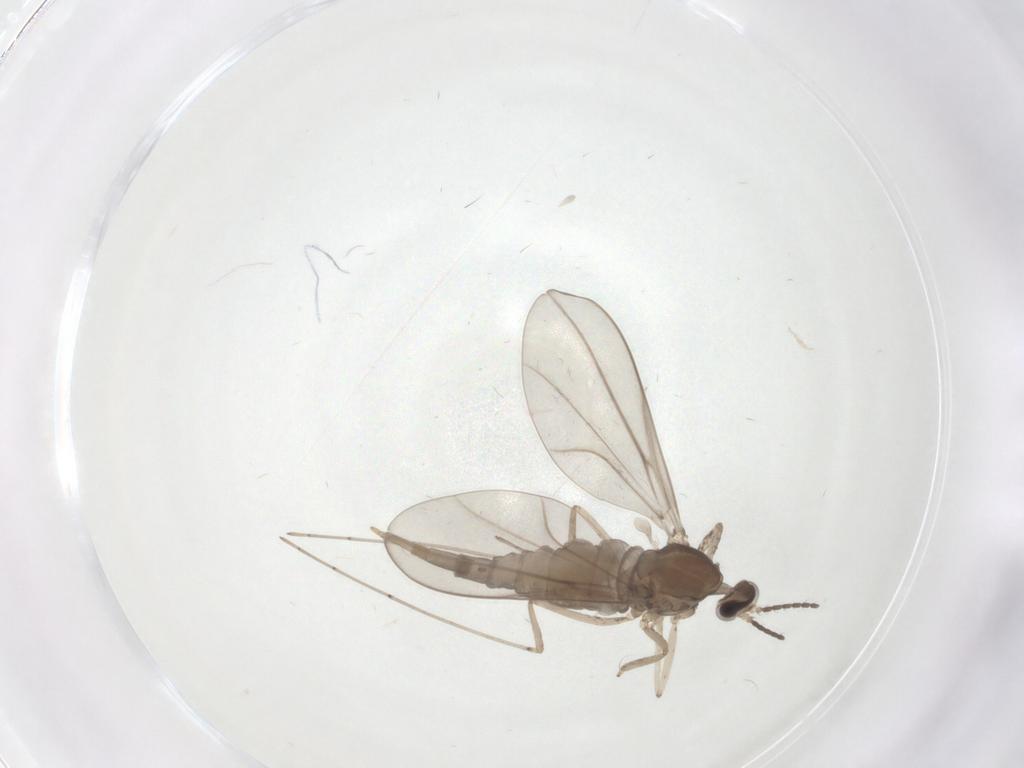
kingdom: Animalia
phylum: Arthropoda
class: Insecta
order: Diptera
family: Cecidomyiidae
